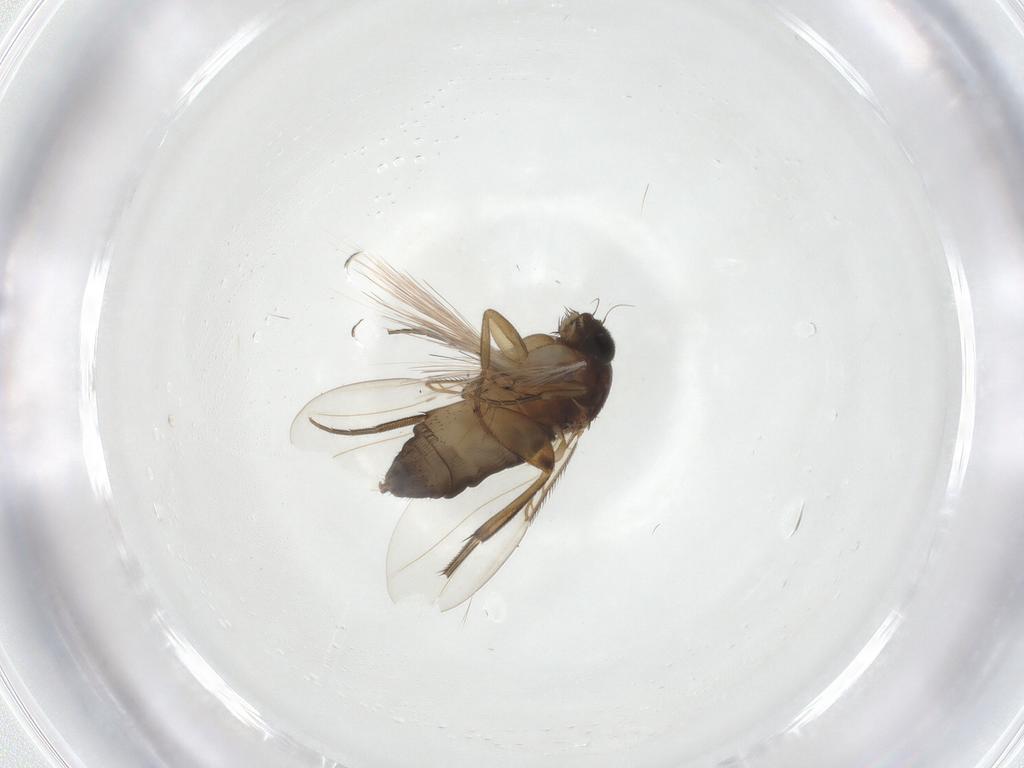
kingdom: Animalia
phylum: Arthropoda
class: Insecta
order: Diptera
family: Phoridae
